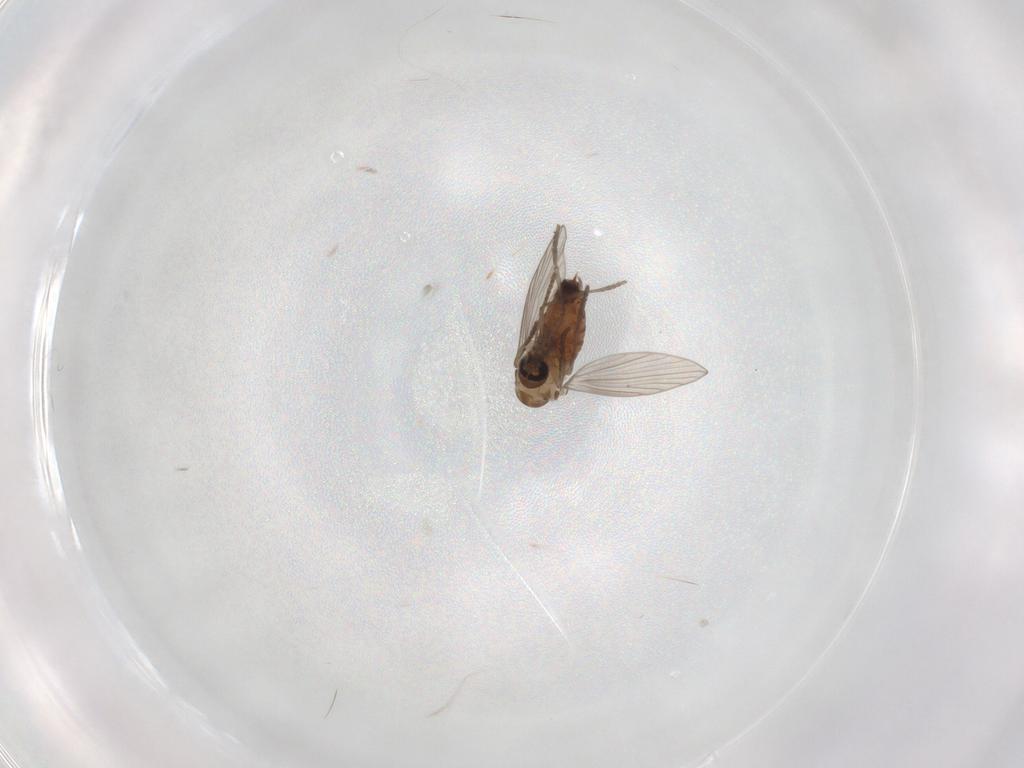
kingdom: Animalia
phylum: Arthropoda
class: Insecta
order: Diptera
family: Psychodidae
